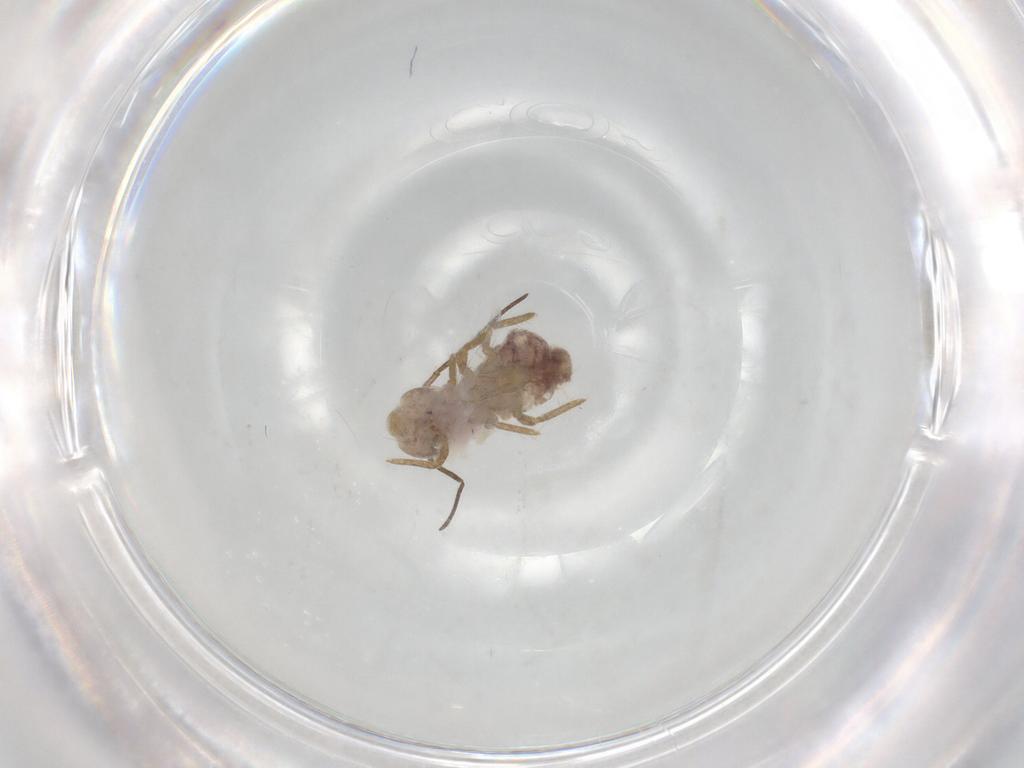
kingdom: Animalia
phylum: Arthropoda
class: Collembola
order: Symphypleona
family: Sminthuridae
